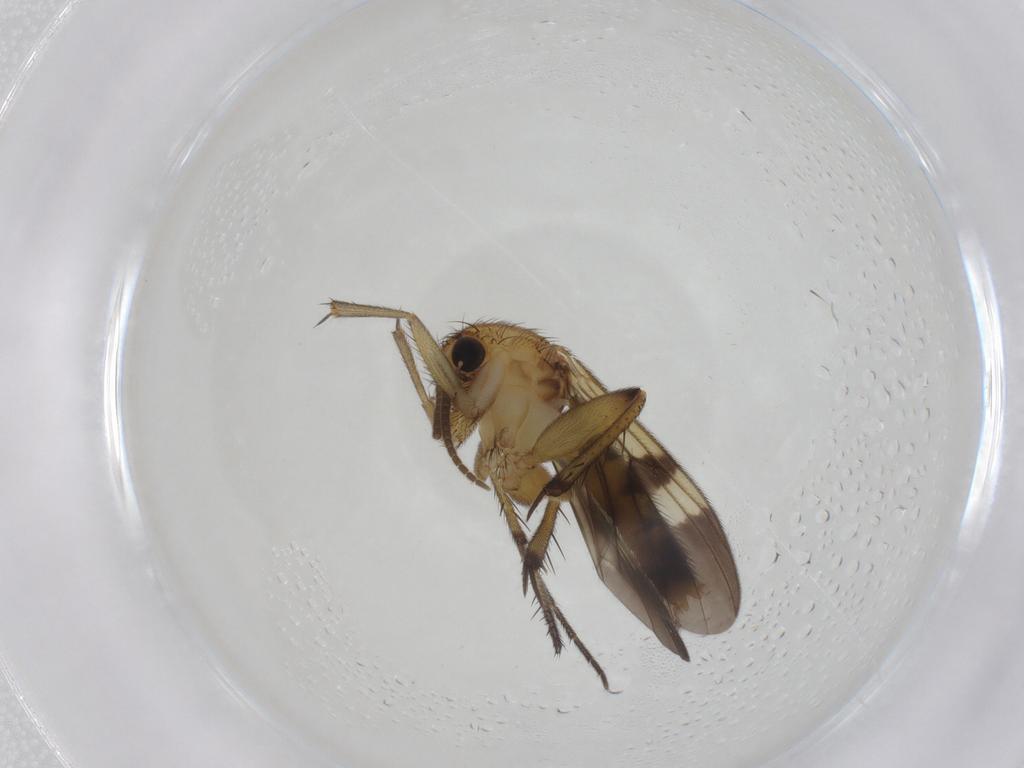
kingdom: Animalia
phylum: Arthropoda
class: Insecta
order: Diptera
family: Mycetophilidae
